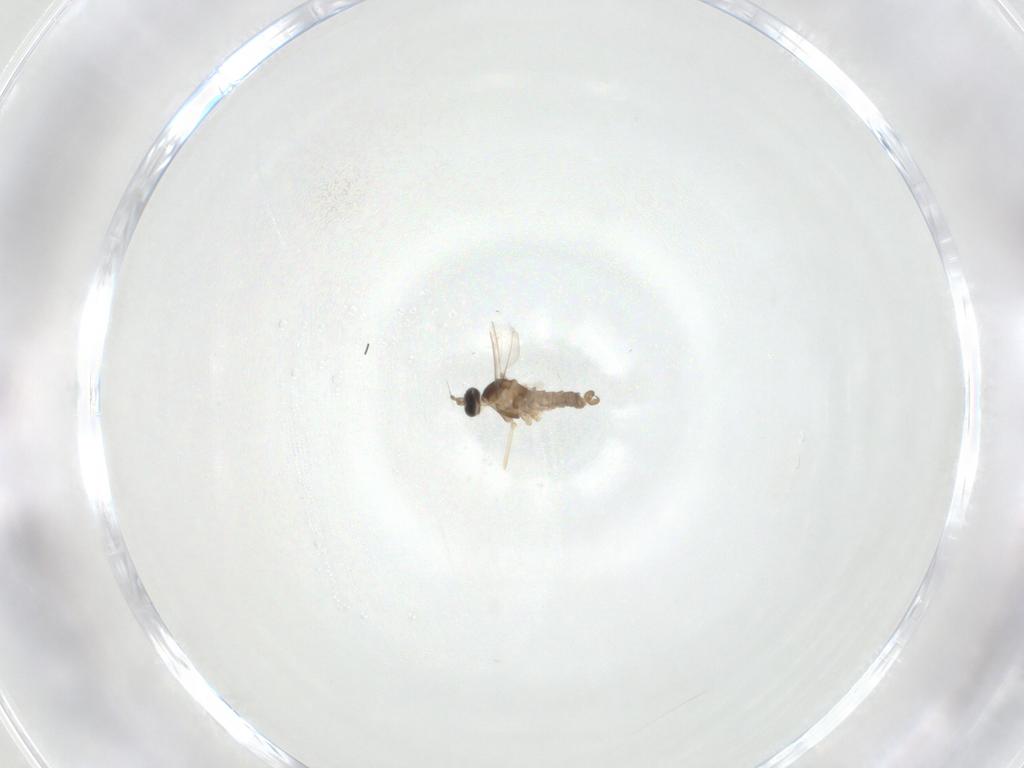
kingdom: Animalia
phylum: Arthropoda
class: Insecta
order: Diptera
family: Cecidomyiidae
